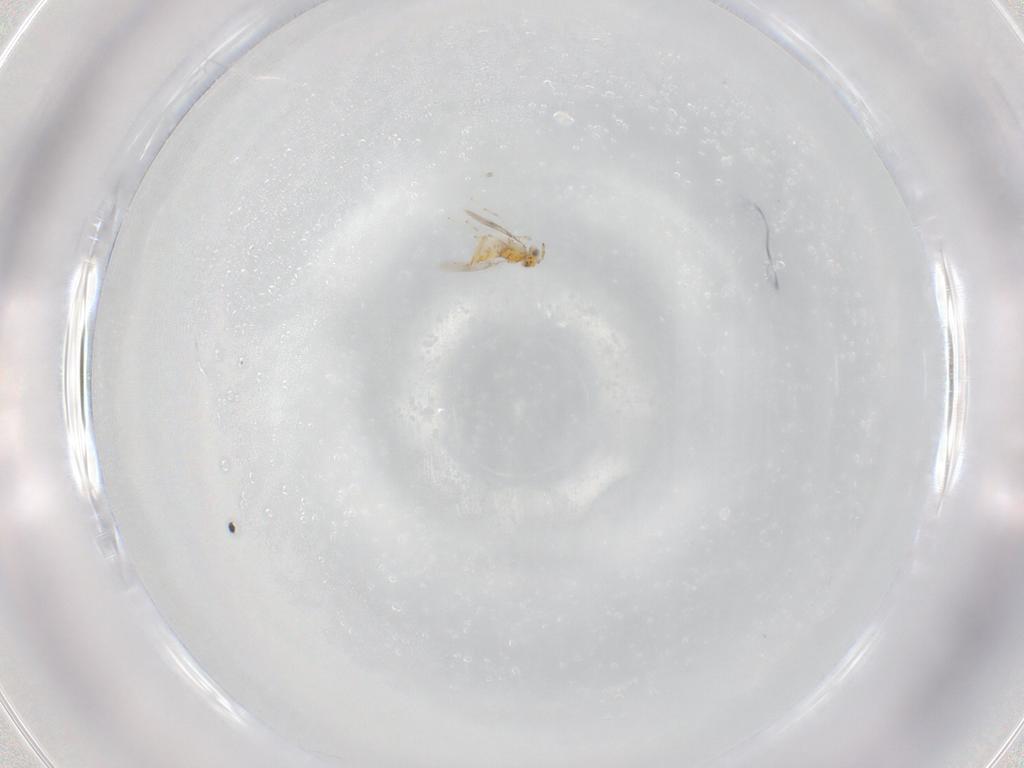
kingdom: Animalia
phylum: Arthropoda
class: Insecta
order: Hymenoptera
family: Aphelinidae
